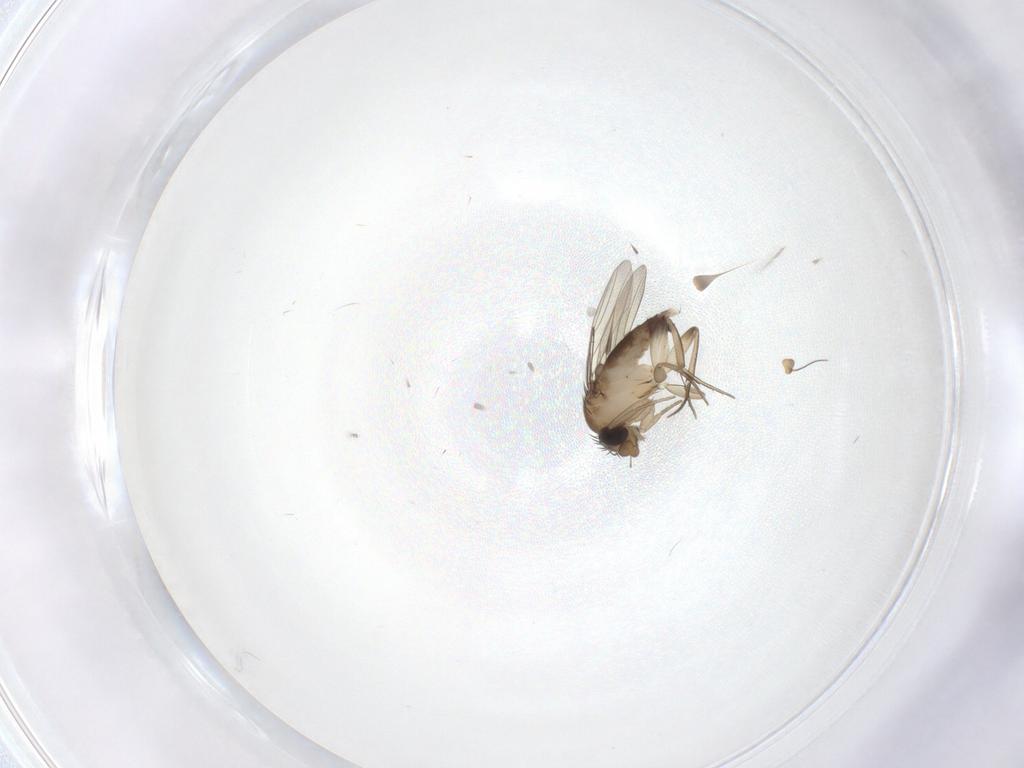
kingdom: Animalia
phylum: Arthropoda
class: Insecta
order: Diptera
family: Phoridae
